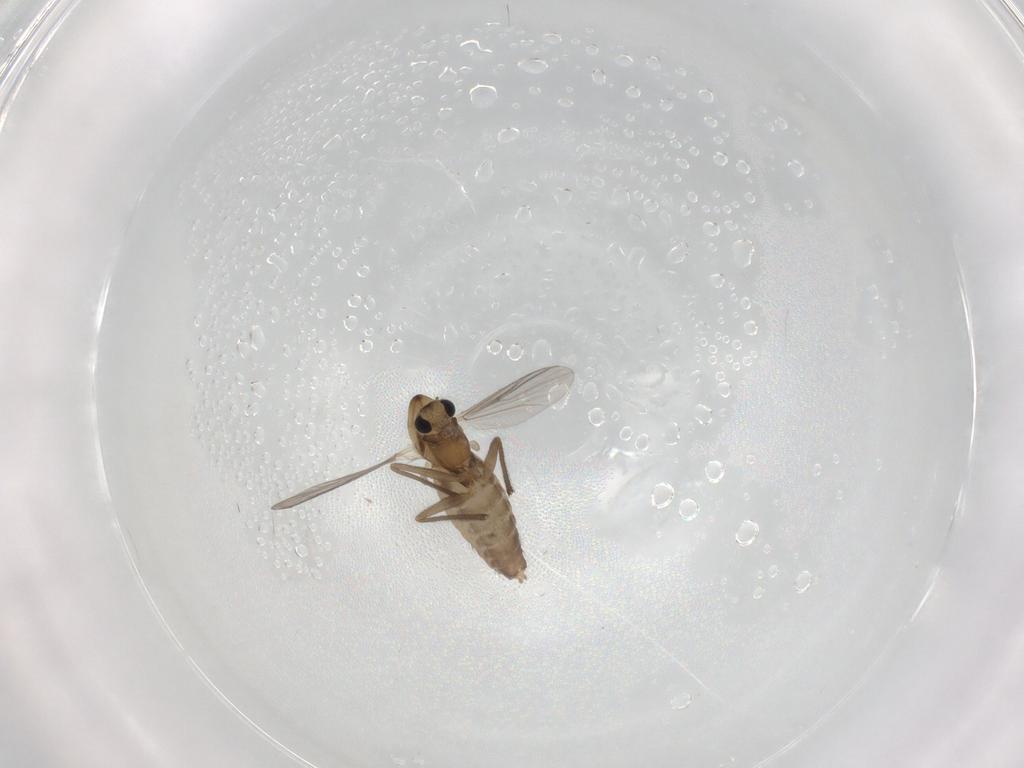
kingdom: Animalia
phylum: Arthropoda
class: Insecta
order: Diptera
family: Chironomidae
